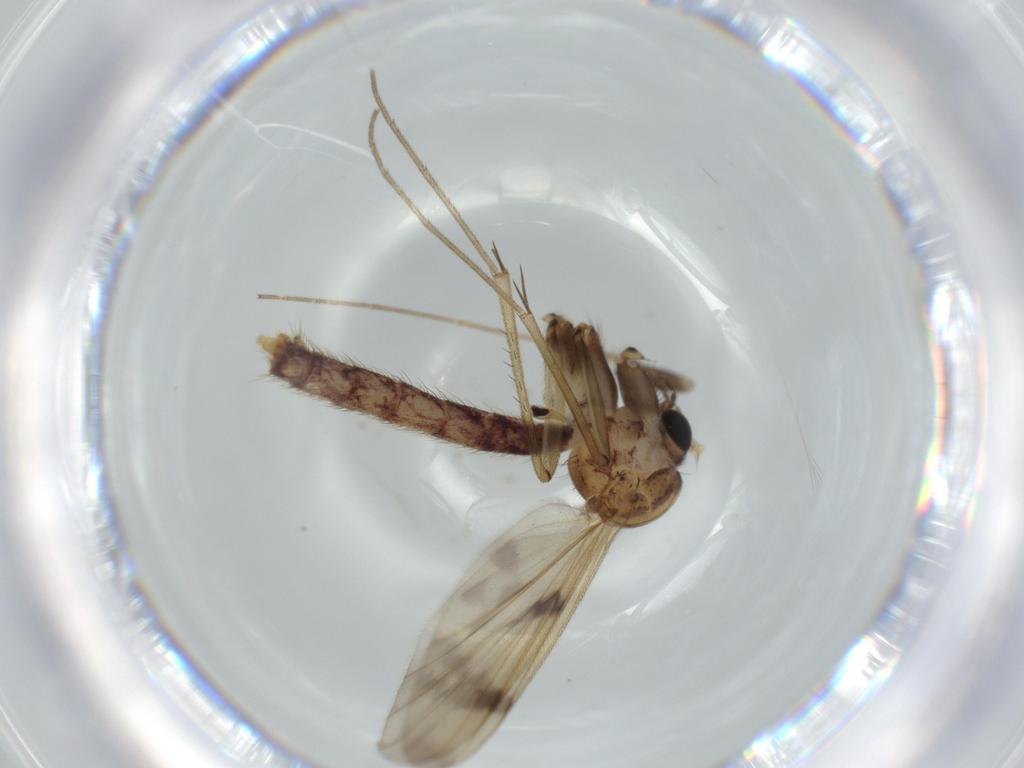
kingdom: Animalia
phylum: Arthropoda
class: Insecta
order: Diptera
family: Mycetophilidae
